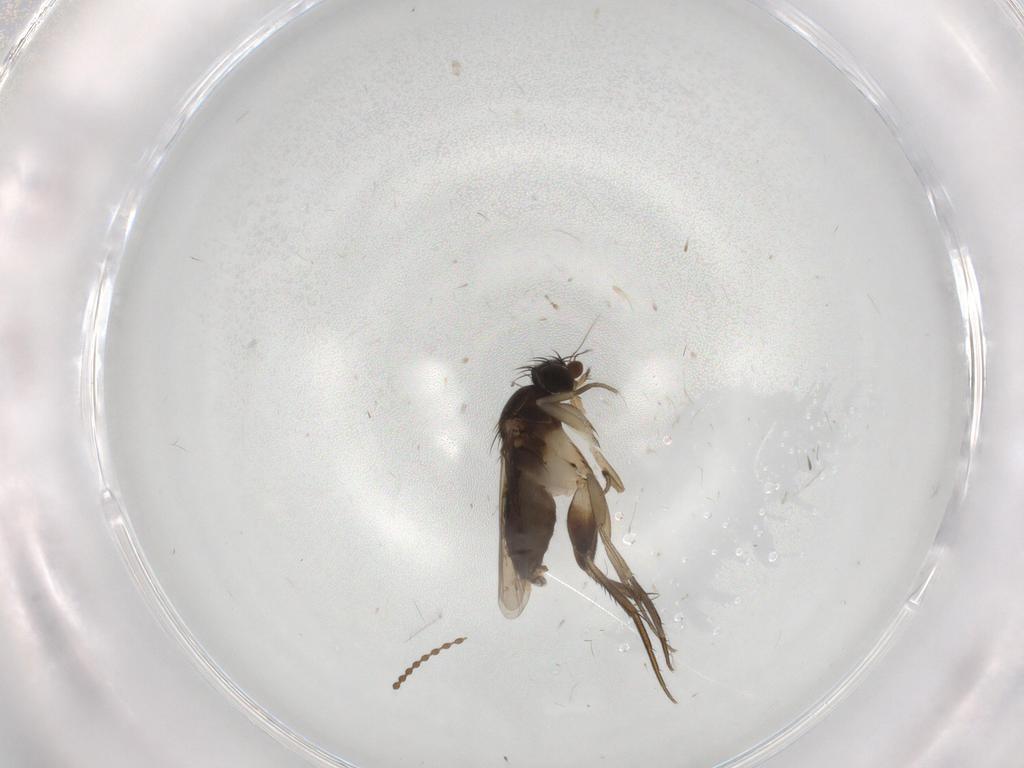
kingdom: Animalia
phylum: Arthropoda
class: Insecta
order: Diptera
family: Phoridae
